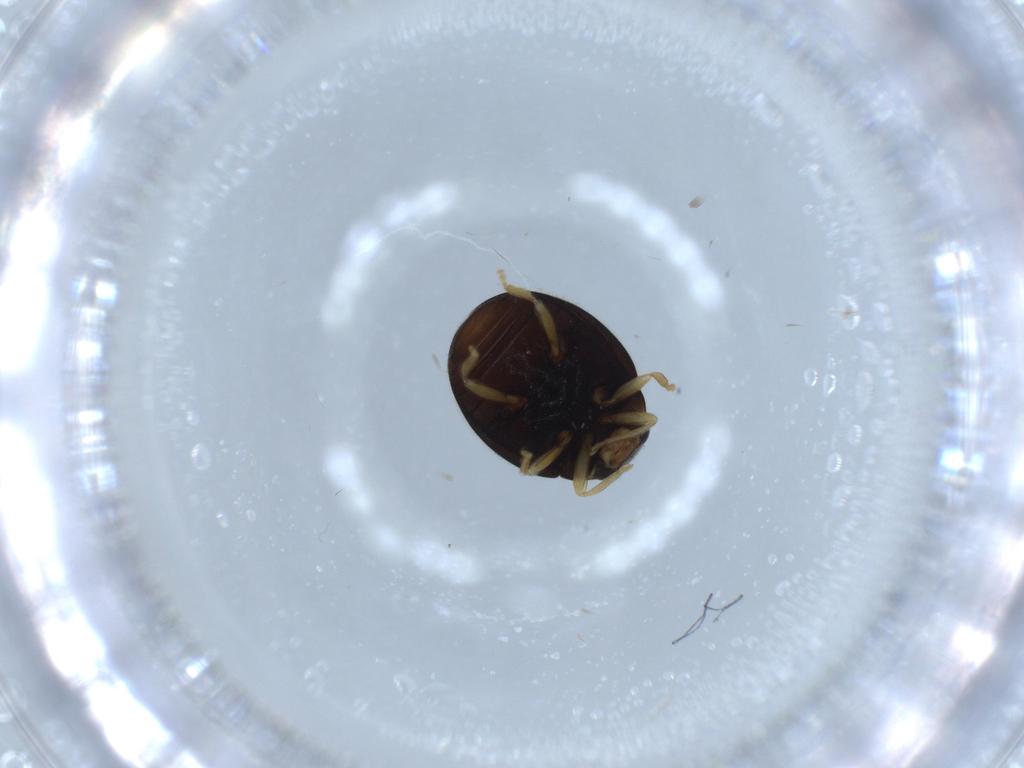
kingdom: Animalia
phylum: Arthropoda
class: Insecta
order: Coleoptera
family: Coccinellidae
